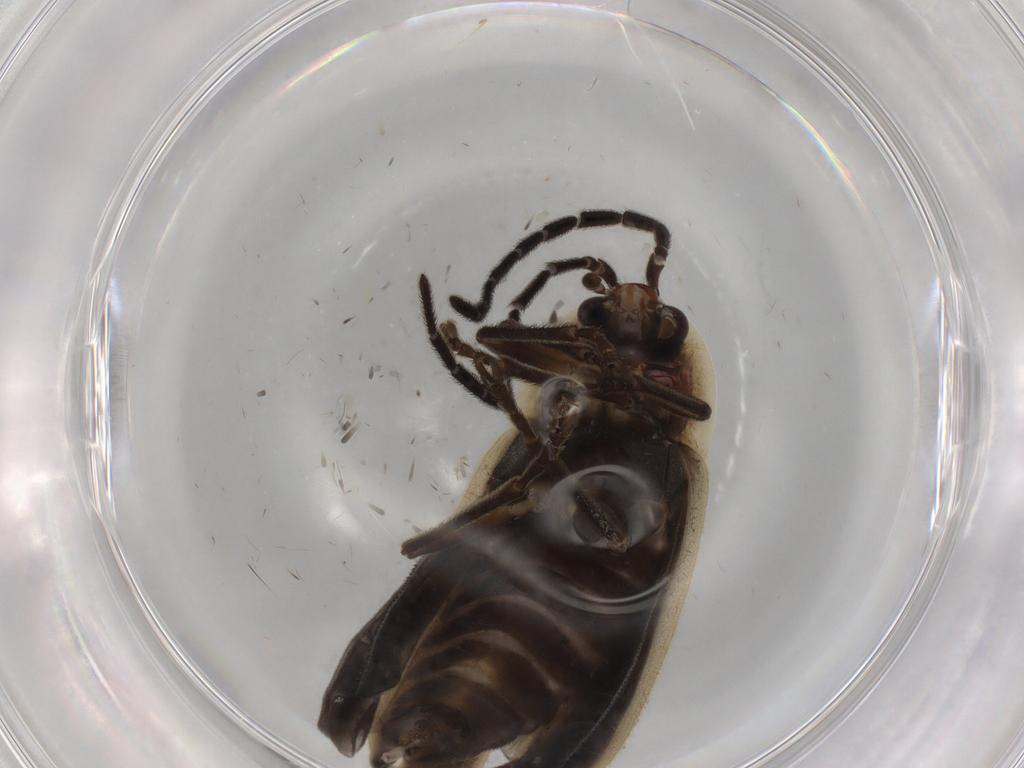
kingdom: Animalia
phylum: Arthropoda
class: Insecta
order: Coleoptera
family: Lampyridae
